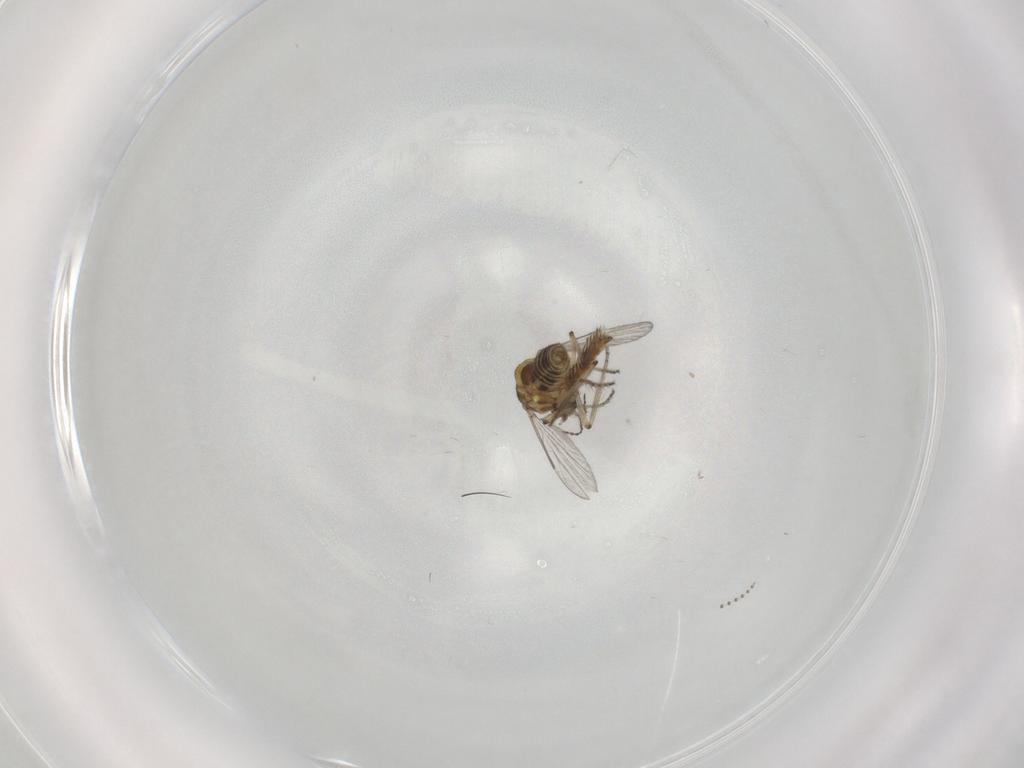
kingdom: Animalia
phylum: Arthropoda
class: Insecta
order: Diptera
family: Ceratopogonidae
